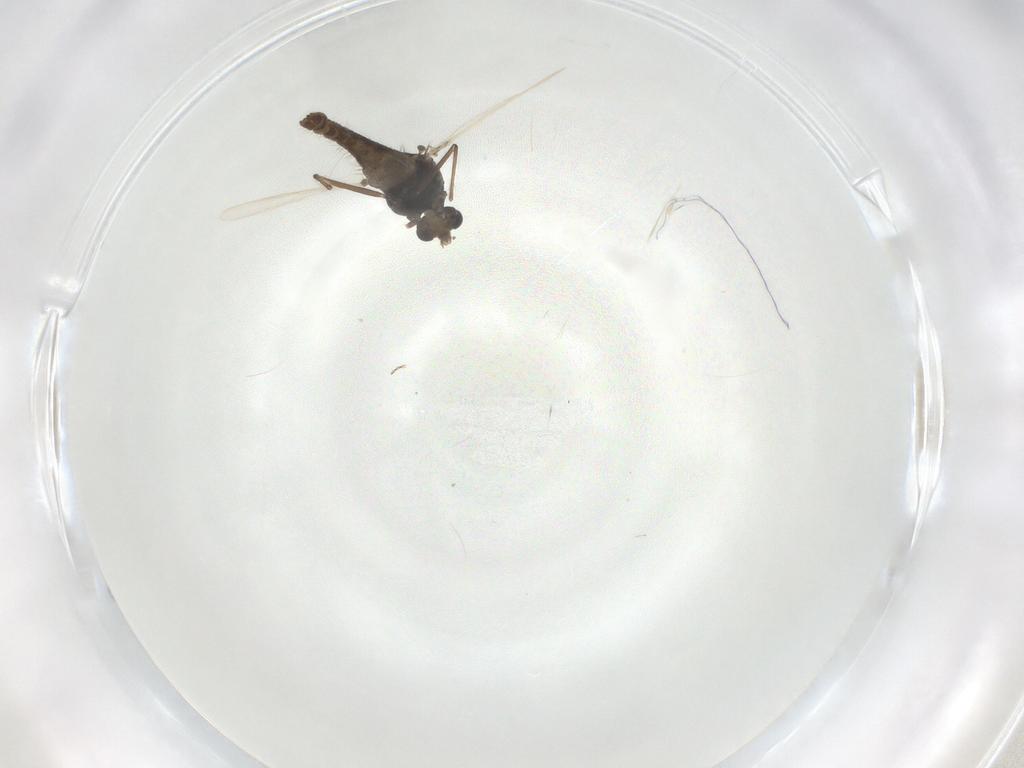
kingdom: Animalia
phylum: Arthropoda
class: Insecta
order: Diptera
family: Chironomidae
